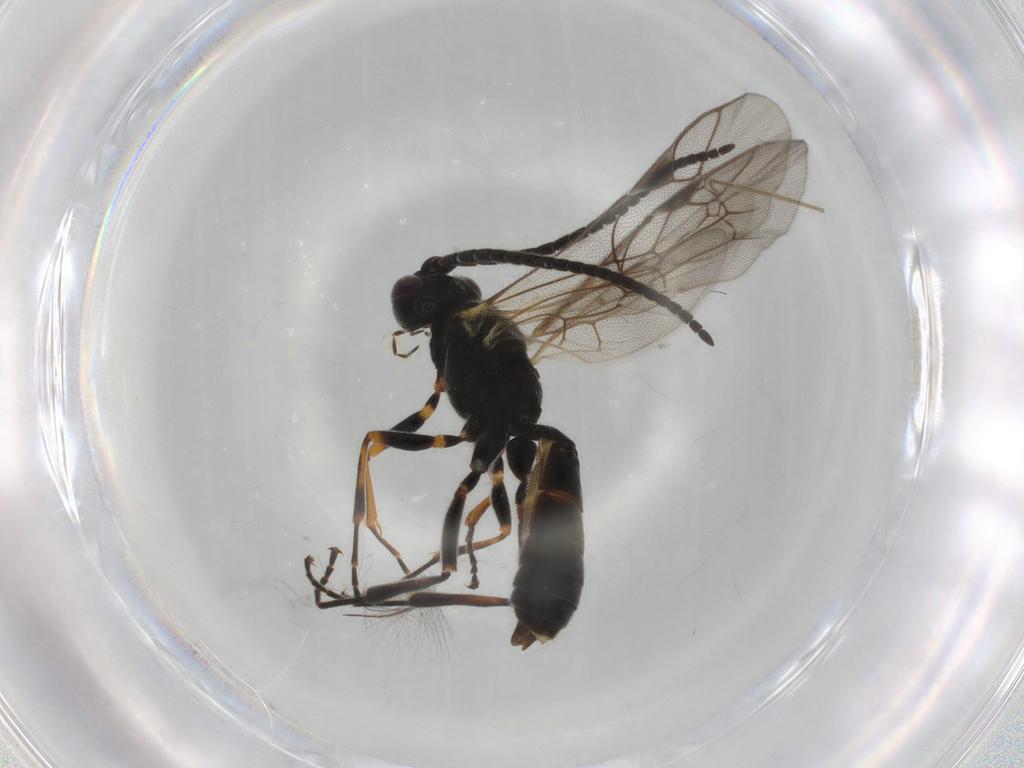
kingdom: Animalia
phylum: Arthropoda
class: Insecta
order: Hymenoptera
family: Ichneumonidae
